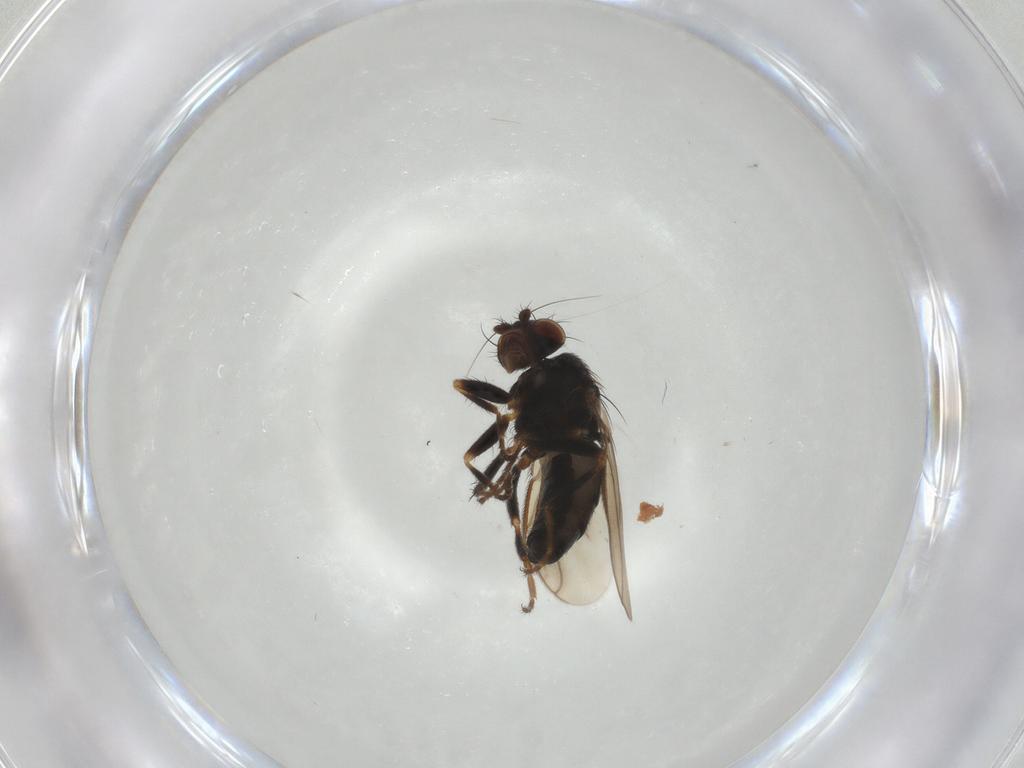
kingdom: Animalia
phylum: Arthropoda
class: Insecta
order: Diptera
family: Sphaeroceridae
